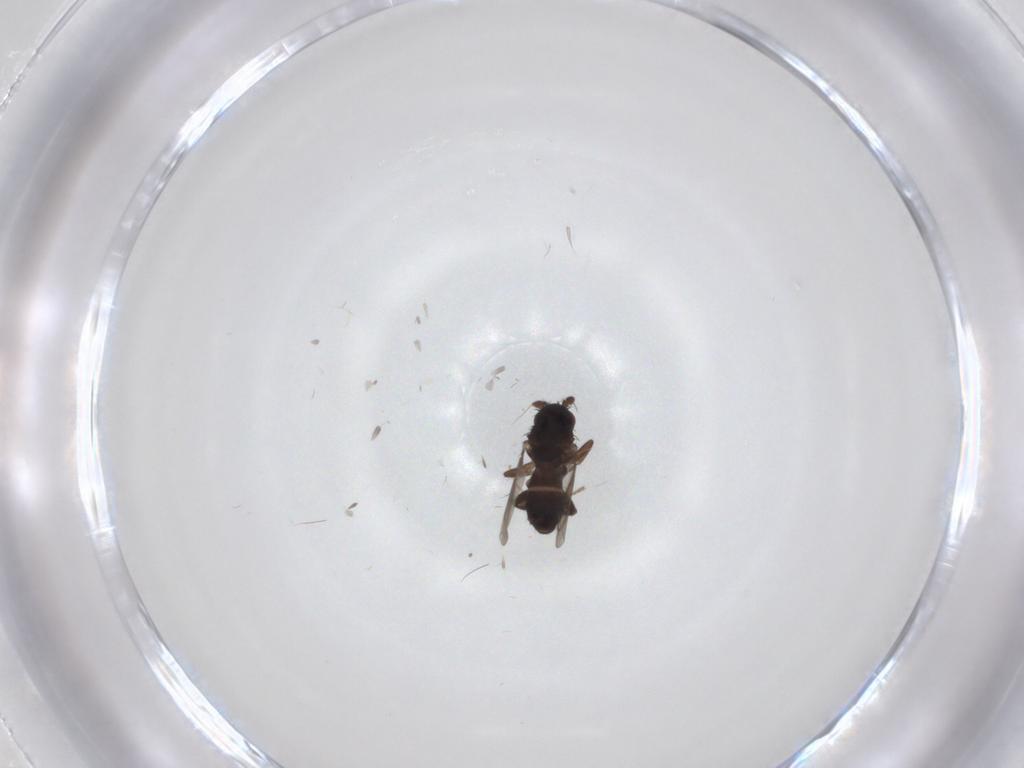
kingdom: Animalia
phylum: Arthropoda
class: Insecta
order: Diptera
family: Sphaeroceridae
